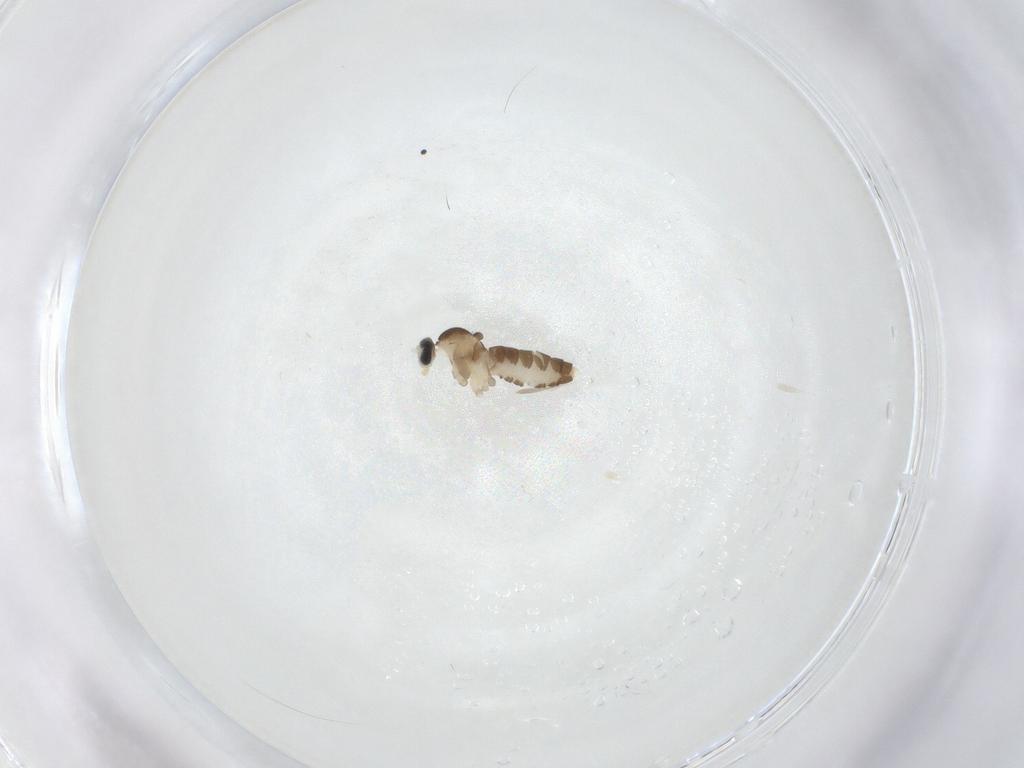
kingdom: Animalia
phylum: Arthropoda
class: Insecta
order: Diptera
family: Cecidomyiidae
